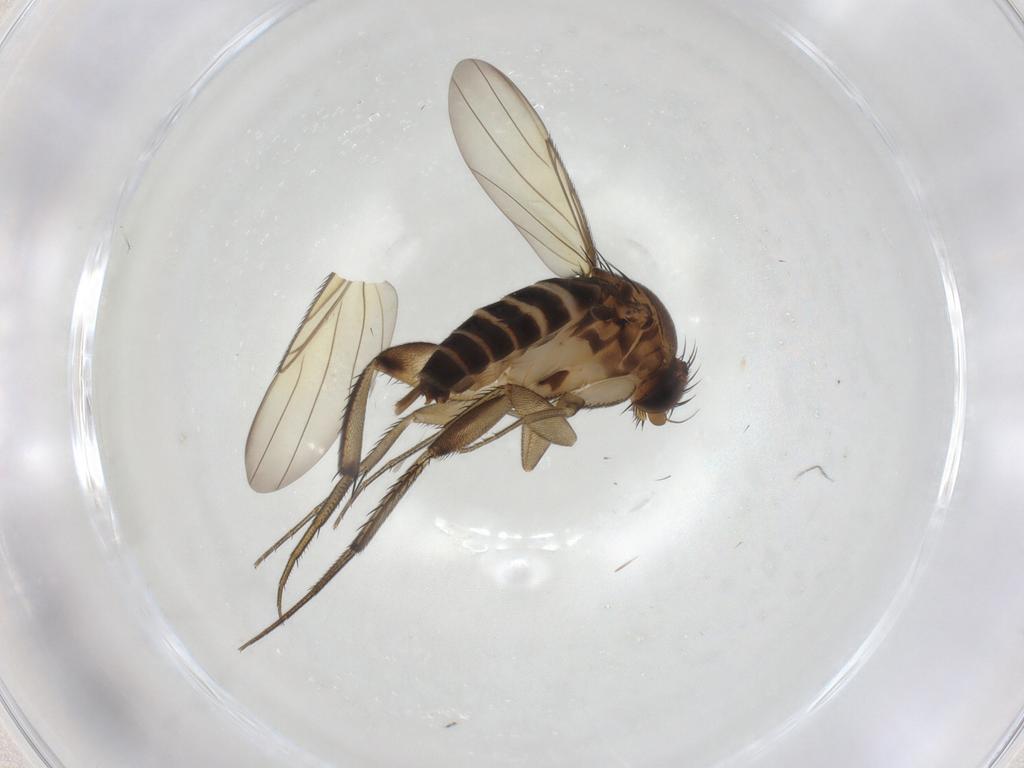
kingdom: Animalia
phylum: Arthropoda
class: Insecta
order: Diptera
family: Phoridae
